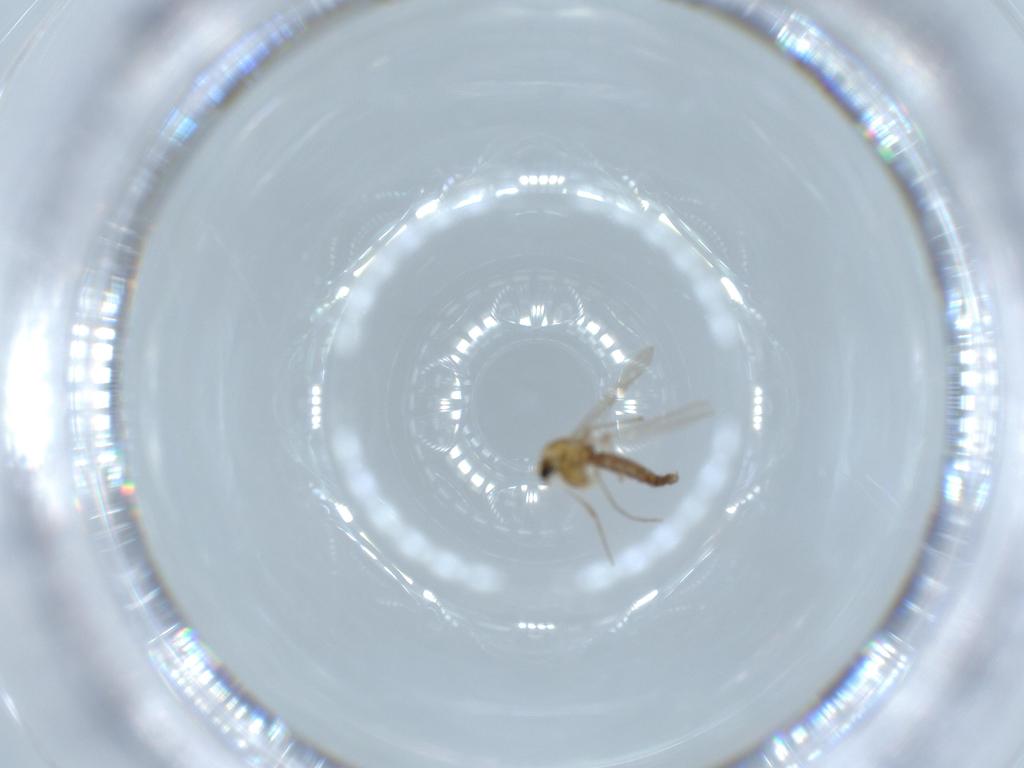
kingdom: Animalia
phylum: Arthropoda
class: Insecta
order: Diptera
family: Chironomidae
